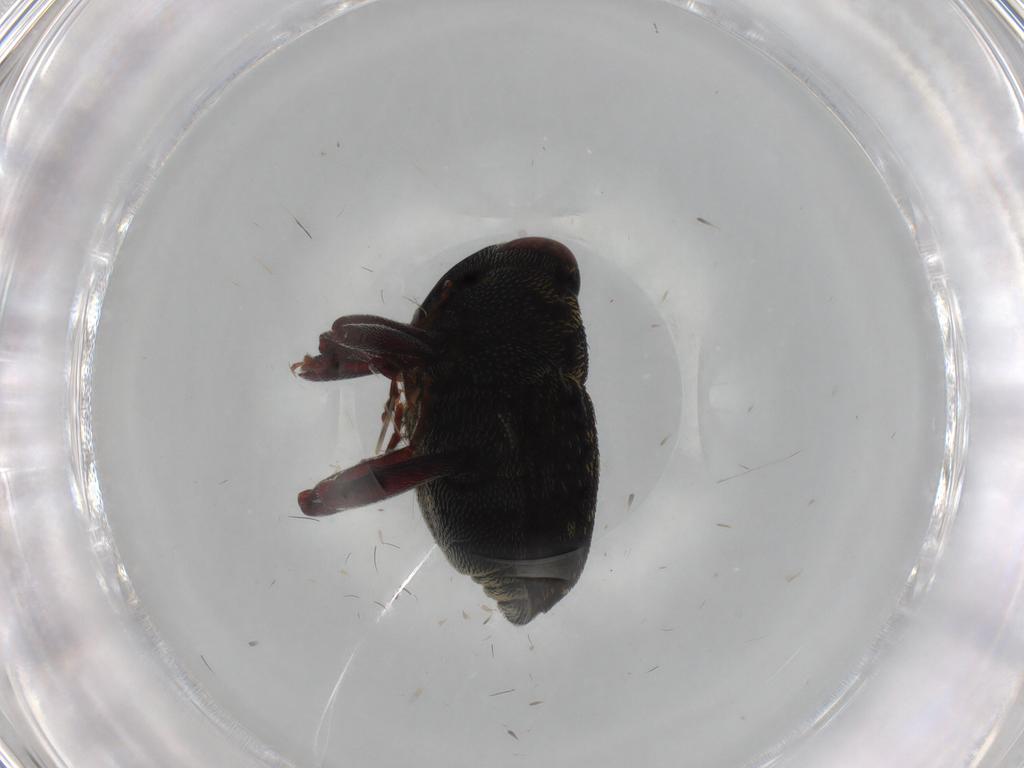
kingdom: Animalia
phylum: Arthropoda
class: Insecta
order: Coleoptera
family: Curculionidae
